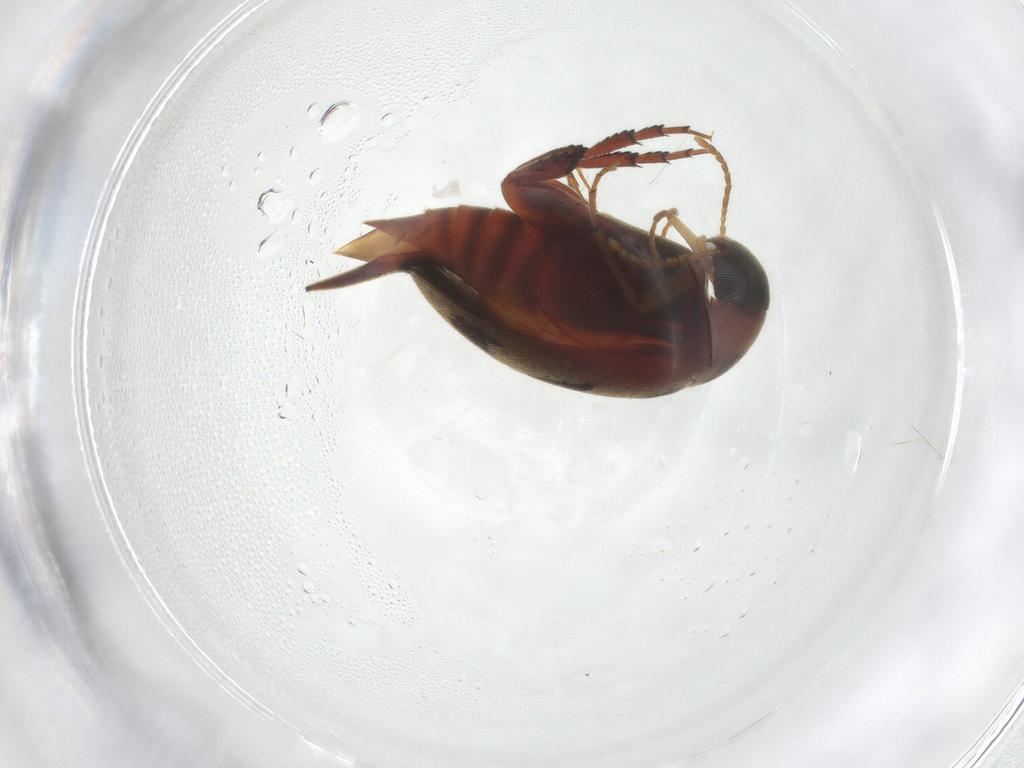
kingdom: Animalia
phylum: Arthropoda
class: Insecta
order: Coleoptera
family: Mordellidae
